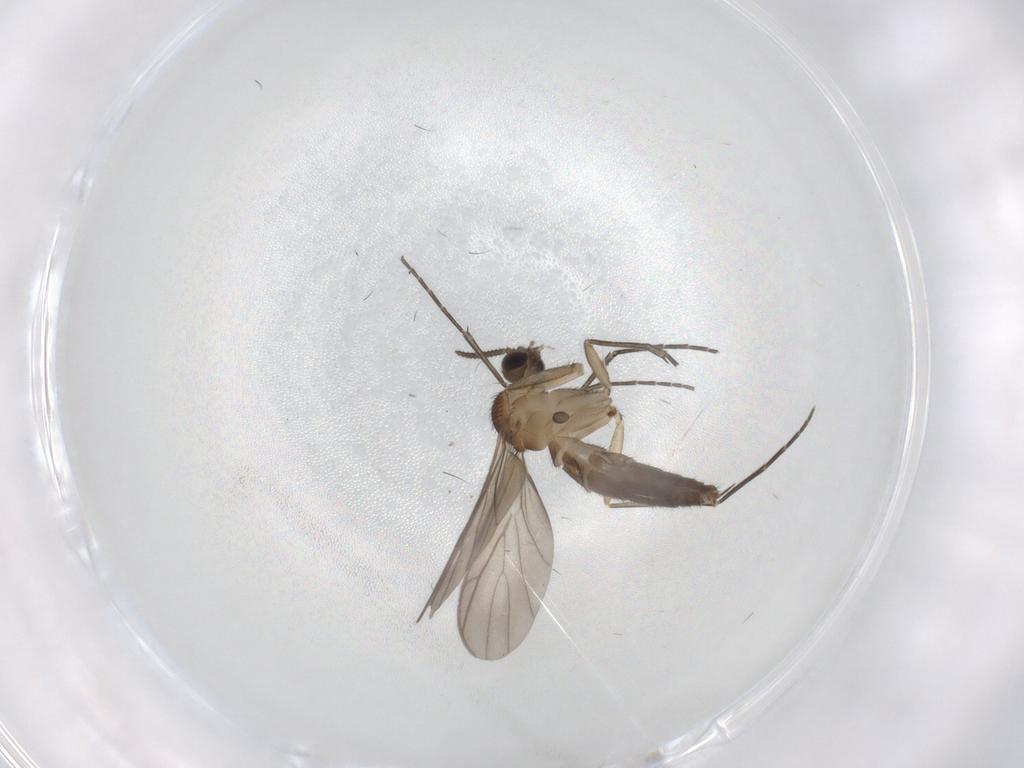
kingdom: Animalia
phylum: Arthropoda
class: Insecta
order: Diptera
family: Keroplatidae
